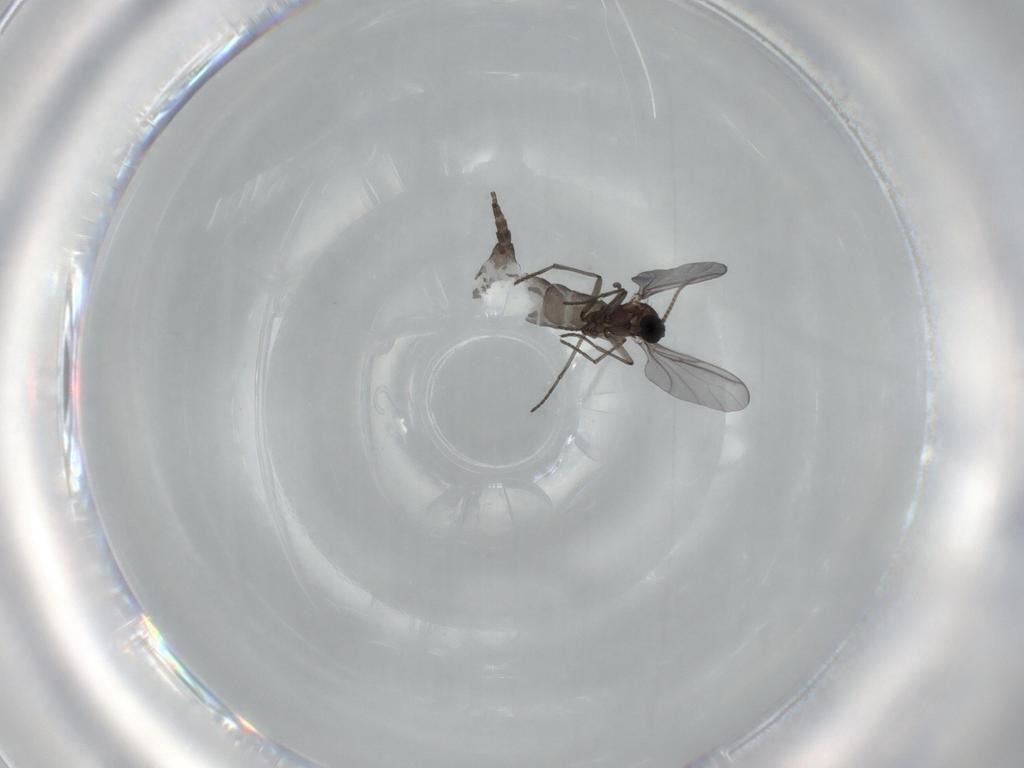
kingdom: Animalia
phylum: Arthropoda
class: Insecta
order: Diptera
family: Milichiidae
